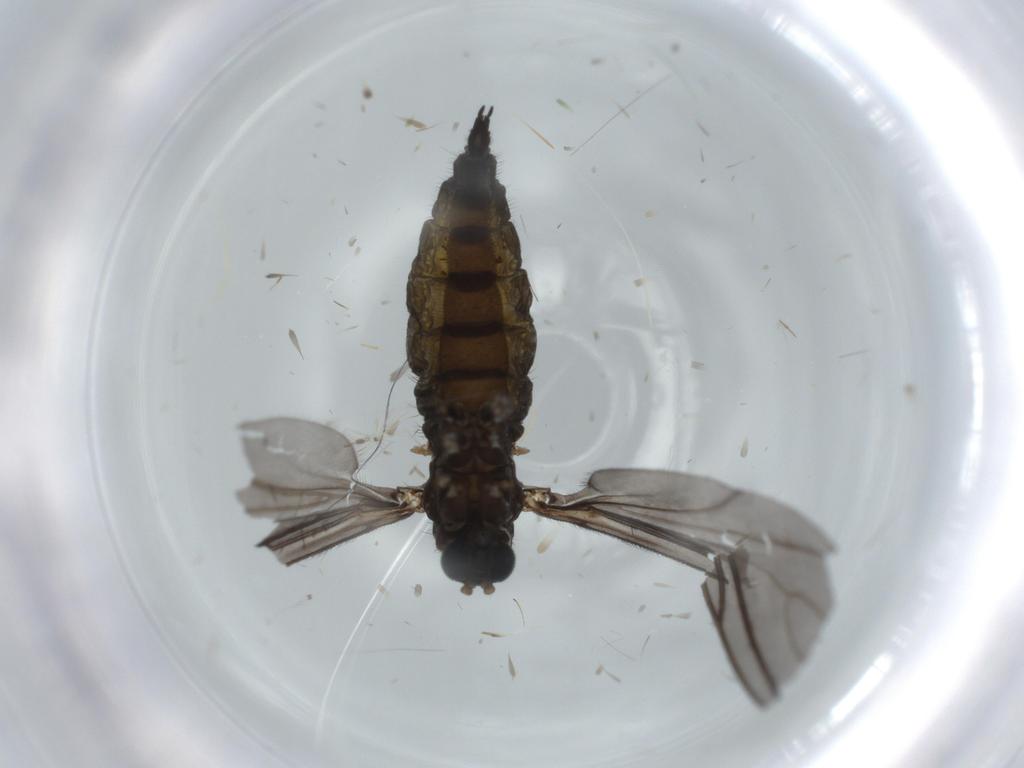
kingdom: Animalia
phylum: Arthropoda
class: Insecta
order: Diptera
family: Sciaridae
